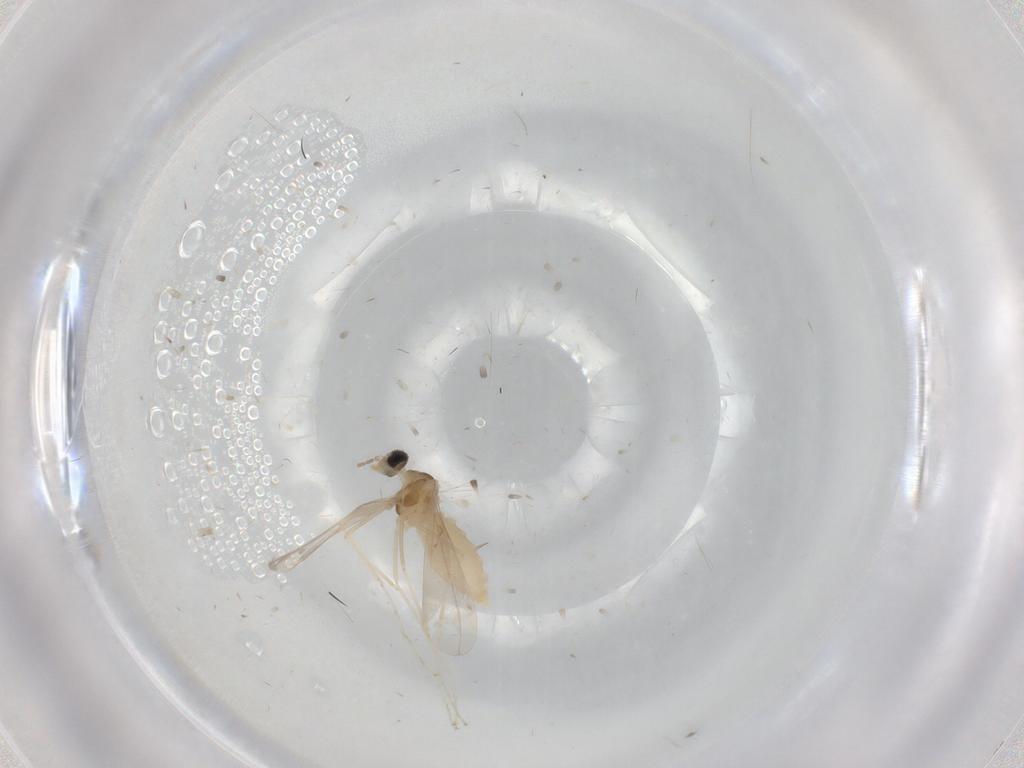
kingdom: Animalia
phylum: Arthropoda
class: Insecta
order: Diptera
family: Cecidomyiidae
